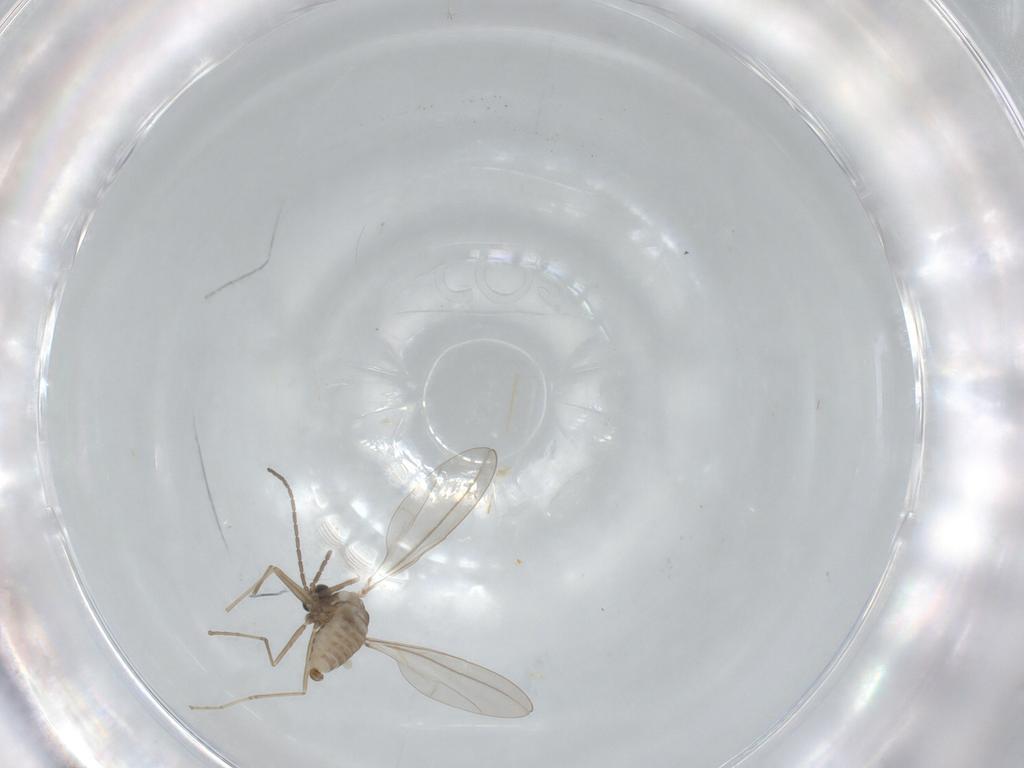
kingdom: Animalia
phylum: Arthropoda
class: Insecta
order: Diptera
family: Cecidomyiidae
